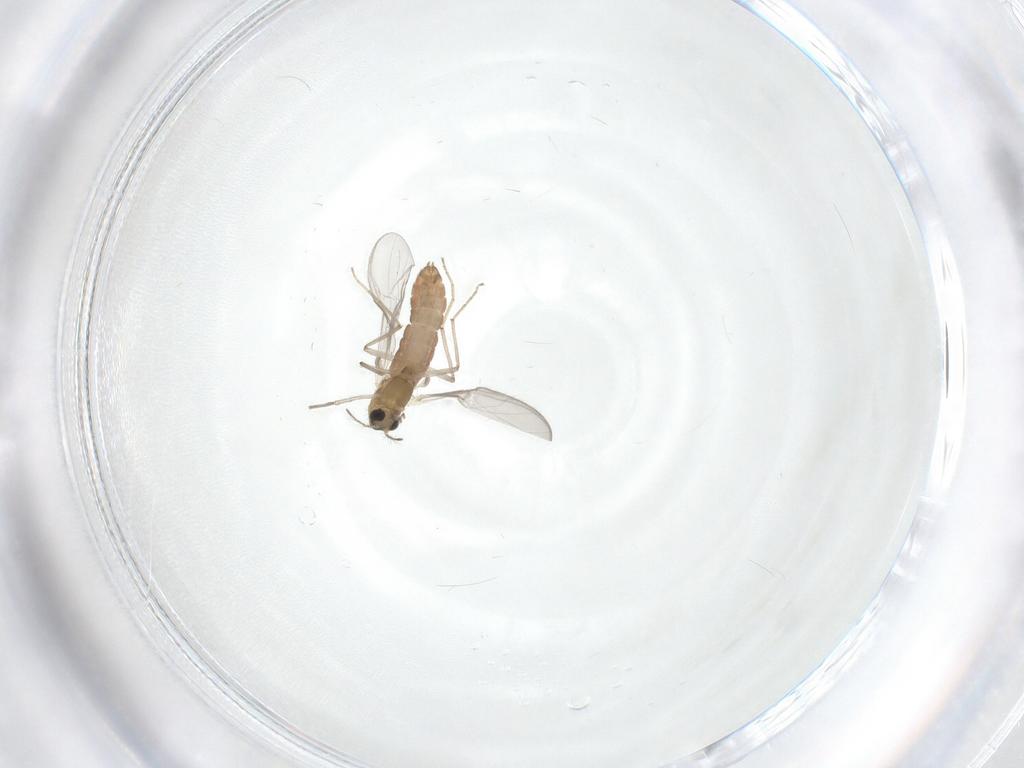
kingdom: Animalia
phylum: Arthropoda
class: Insecta
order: Diptera
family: Chironomidae
